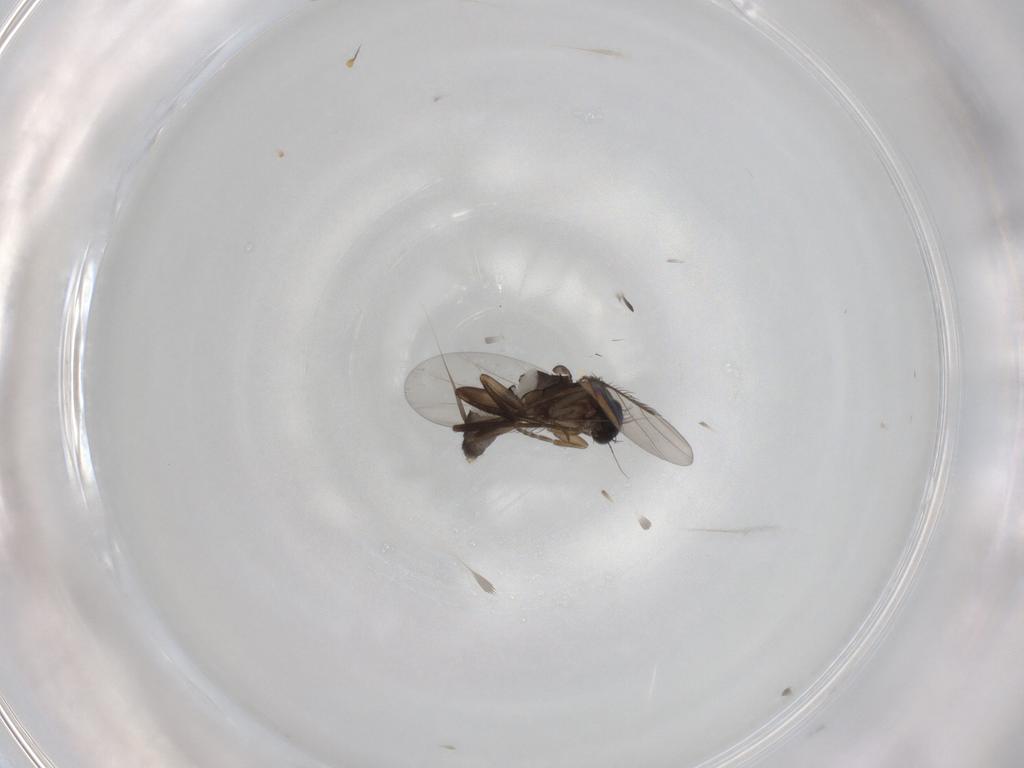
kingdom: Animalia
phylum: Arthropoda
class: Insecta
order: Diptera
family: Phoridae
